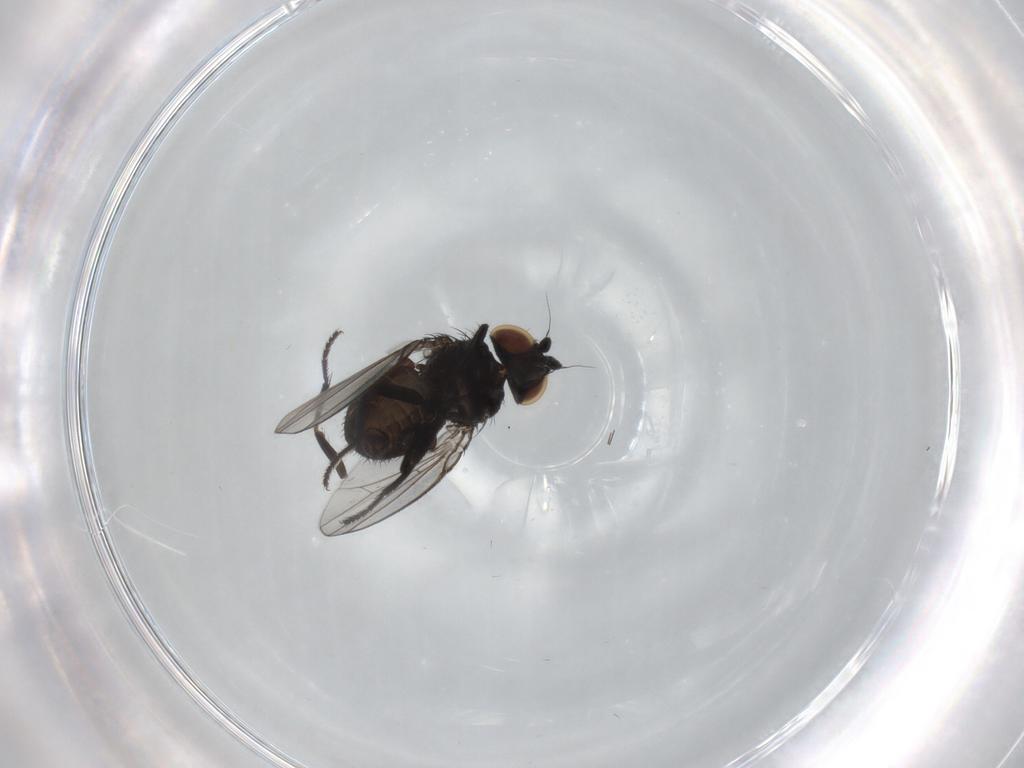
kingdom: Animalia
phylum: Arthropoda
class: Insecta
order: Diptera
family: Milichiidae
